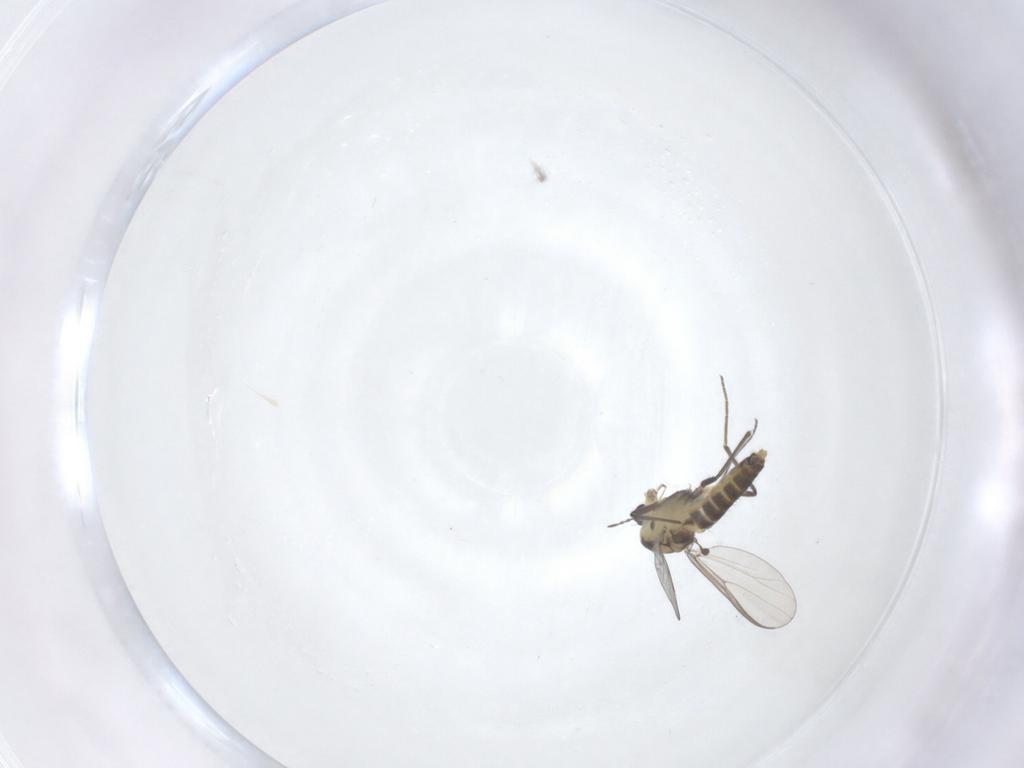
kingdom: Animalia
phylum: Arthropoda
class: Insecta
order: Diptera
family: Chironomidae
